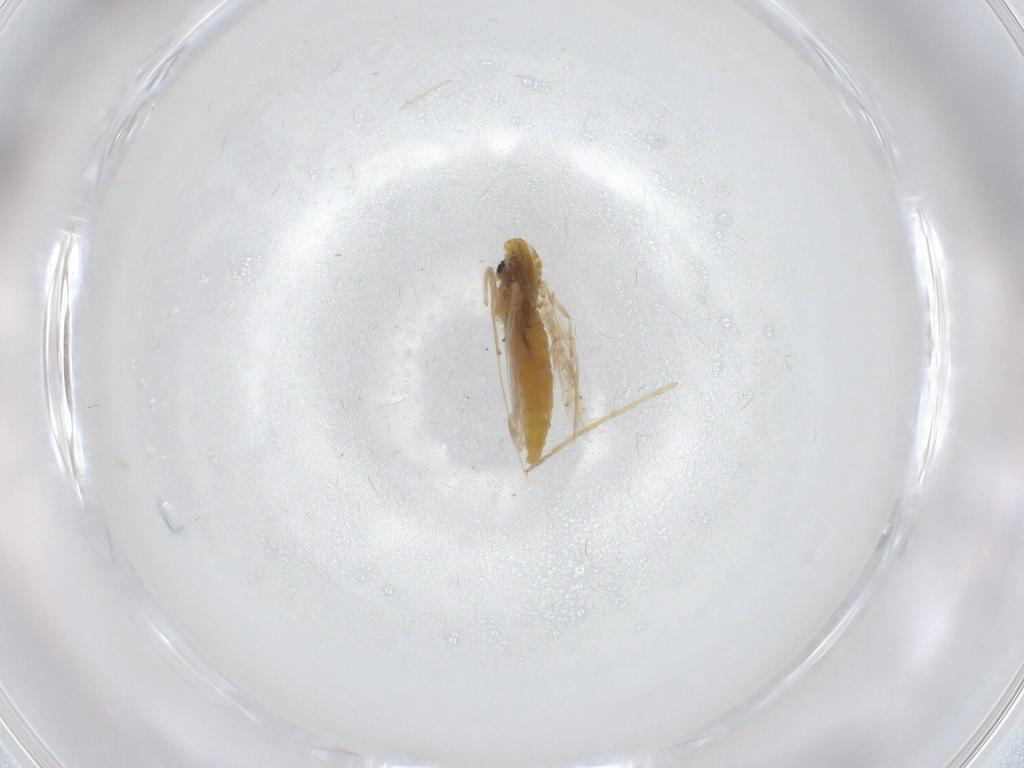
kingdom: Animalia
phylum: Arthropoda
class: Insecta
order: Diptera
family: Chironomidae
